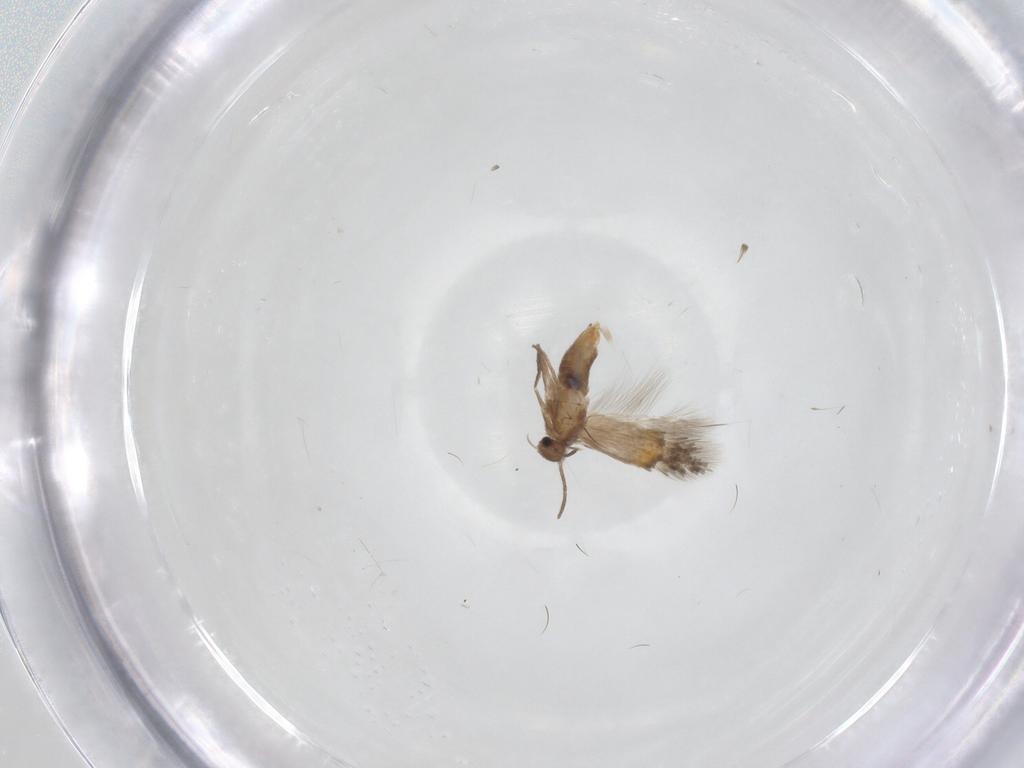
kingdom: Animalia
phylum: Arthropoda
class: Insecta
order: Lepidoptera
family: Heliozelidae
